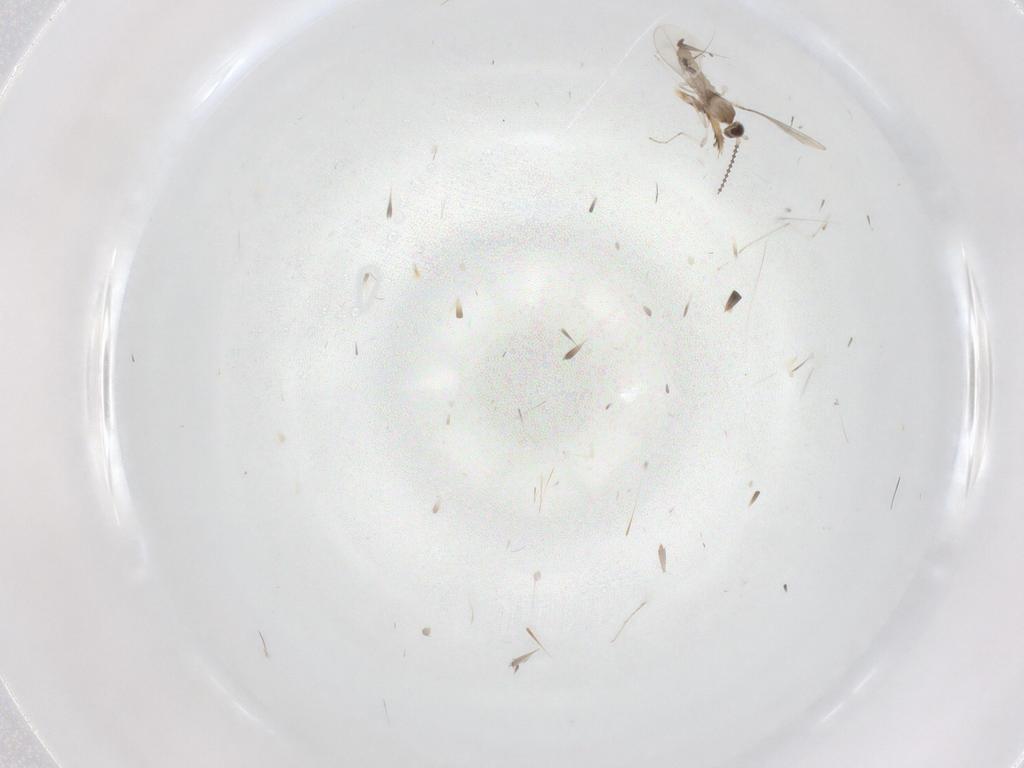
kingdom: Animalia
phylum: Arthropoda
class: Insecta
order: Diptera
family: Cecidomyiidae
